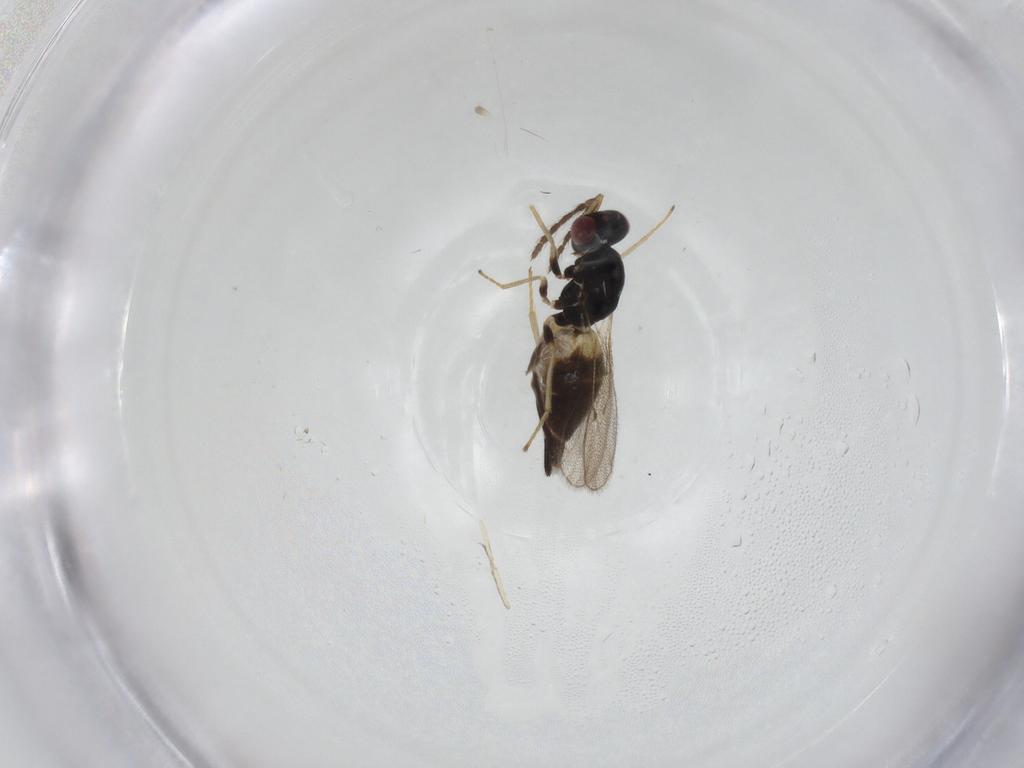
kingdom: Animalia
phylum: Arthropoda
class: Insecta
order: Hymenoptera
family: Eulophidae
